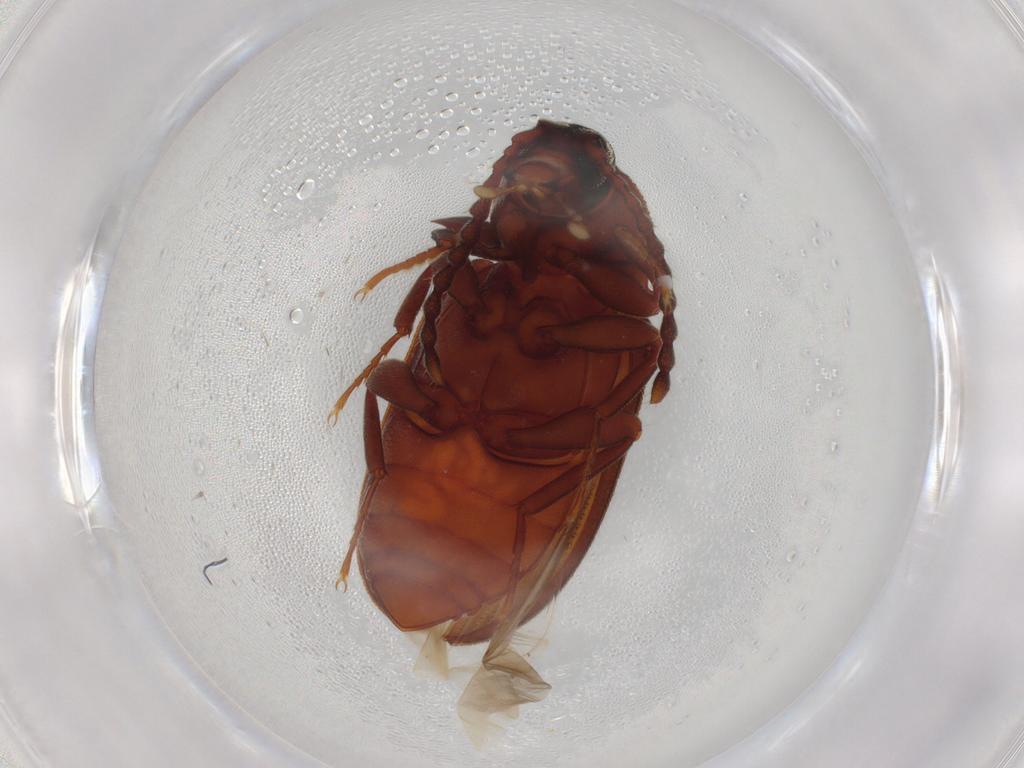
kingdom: Animalia
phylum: Arthropoda
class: Insecta
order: Coleoptera
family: Tenebrionidae
